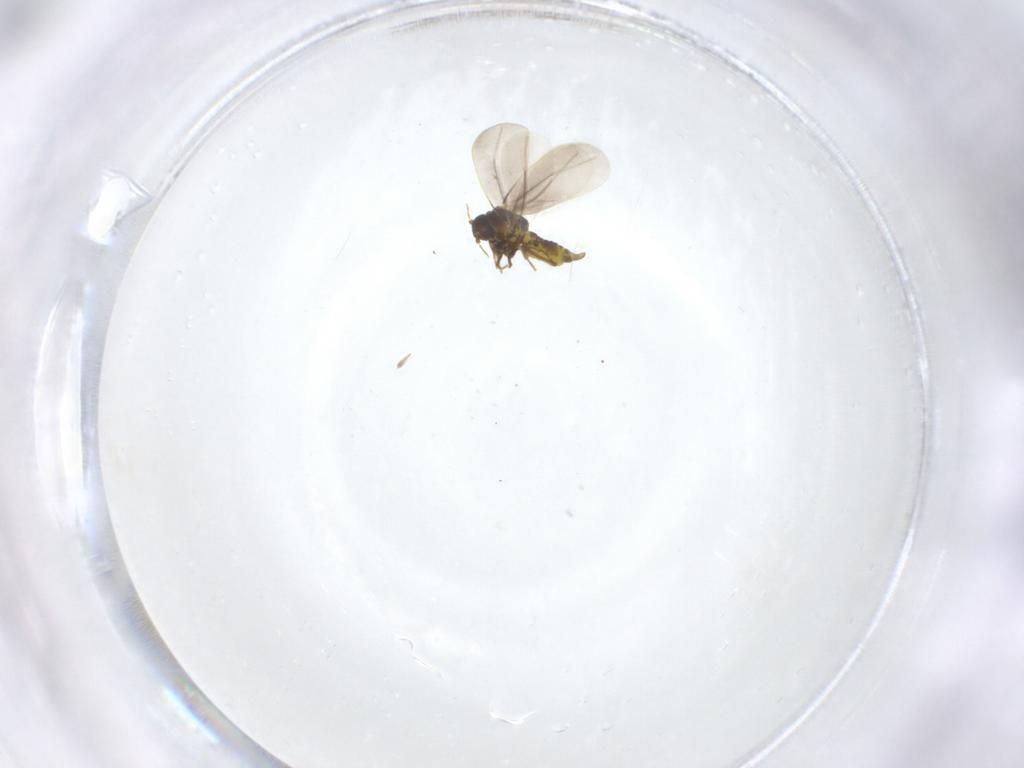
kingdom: Animalia
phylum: Arthropoda
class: Insecta
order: Hemiptera
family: Aleyrodidae
